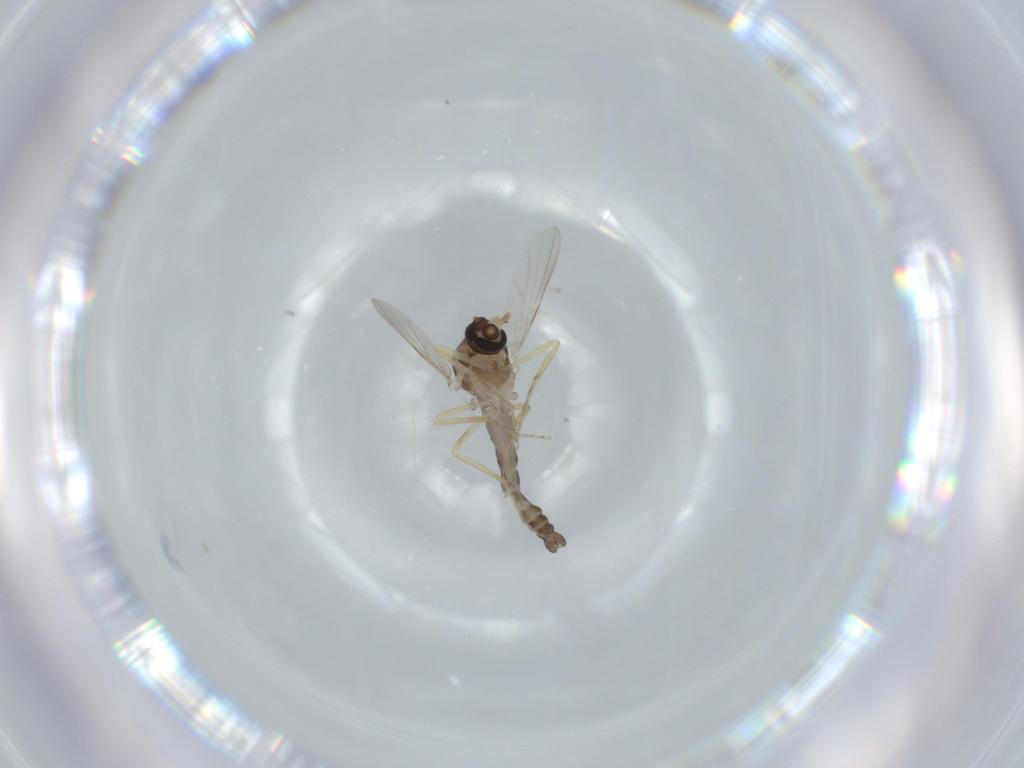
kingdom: Animalia
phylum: Arthropoda
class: Insecta
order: Diptera
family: Ceratopogonidae
